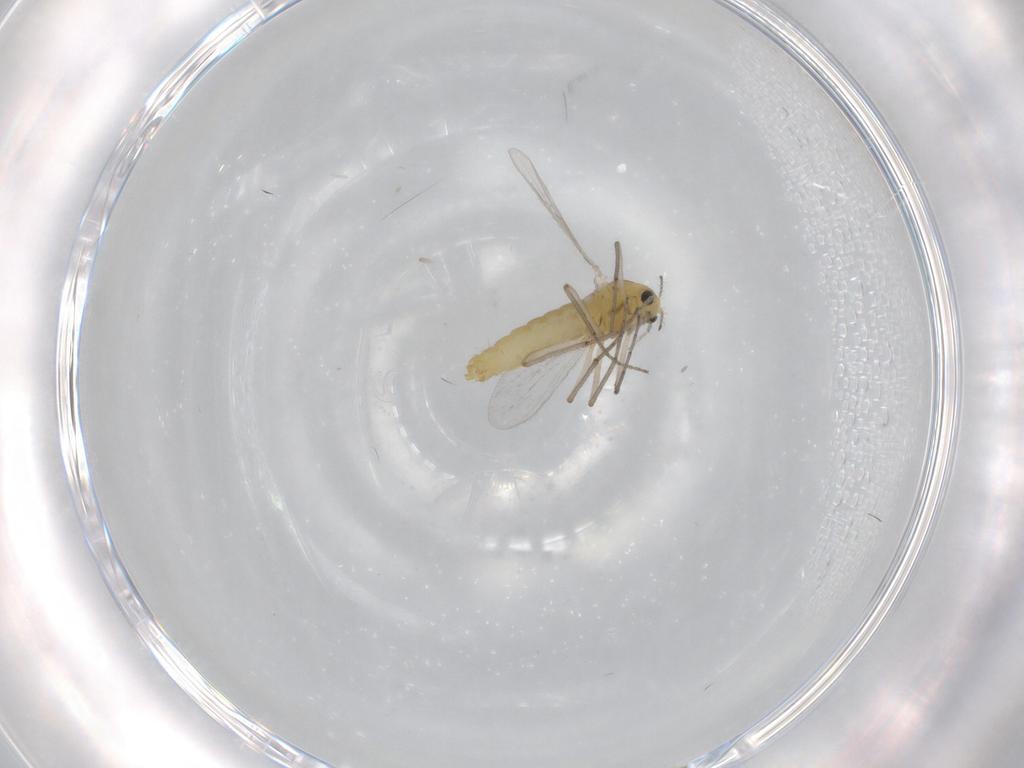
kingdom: Animalia
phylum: Arthropoda
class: Insecta
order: Diptera
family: Chironomidae
